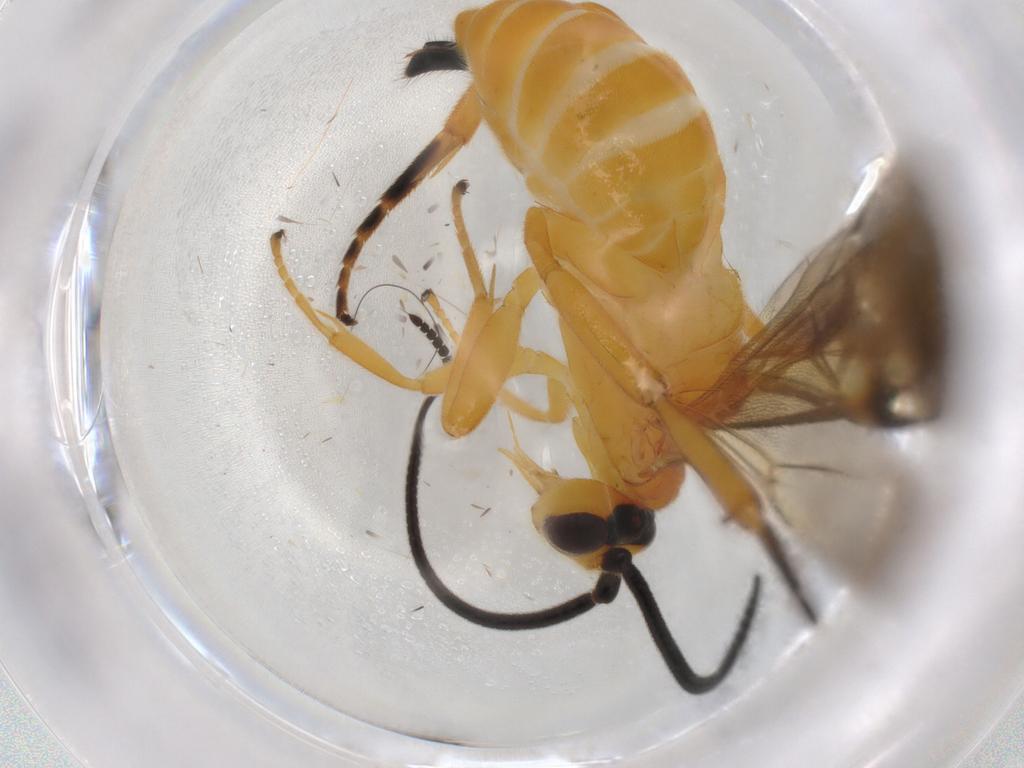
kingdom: Animalia
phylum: Arthropoda
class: Insecta
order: Hymenoptera
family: Braconidae
